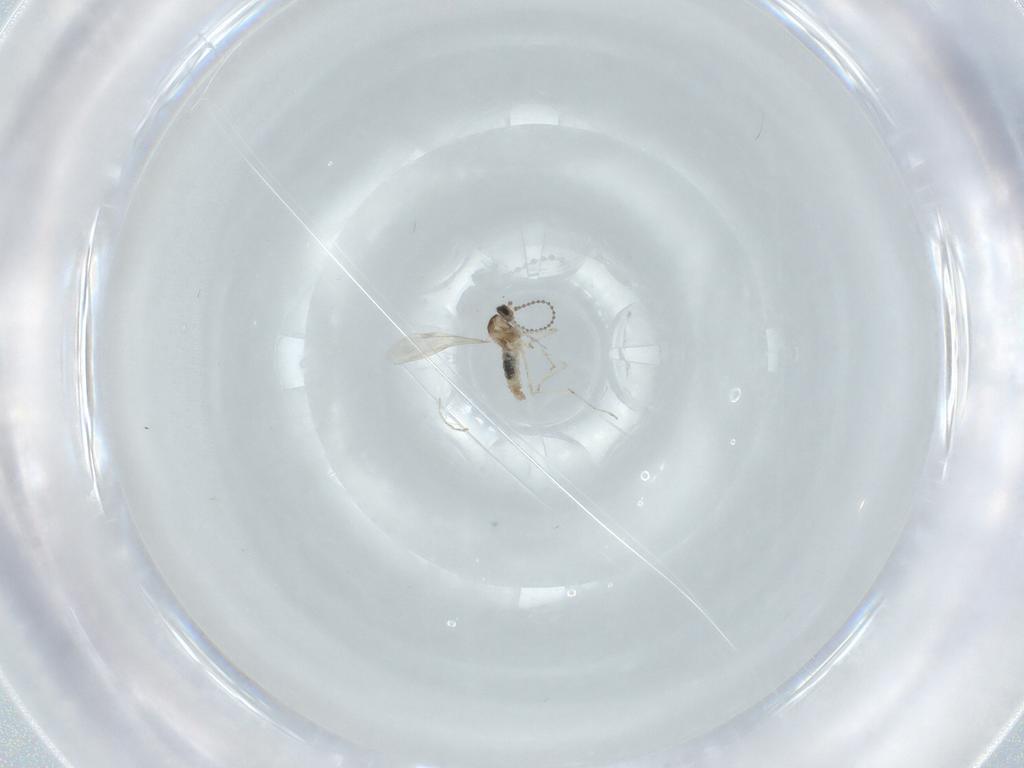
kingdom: Animalia
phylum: Arthropoda
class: Insecta
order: Diptera
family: Cecidomyiidae
